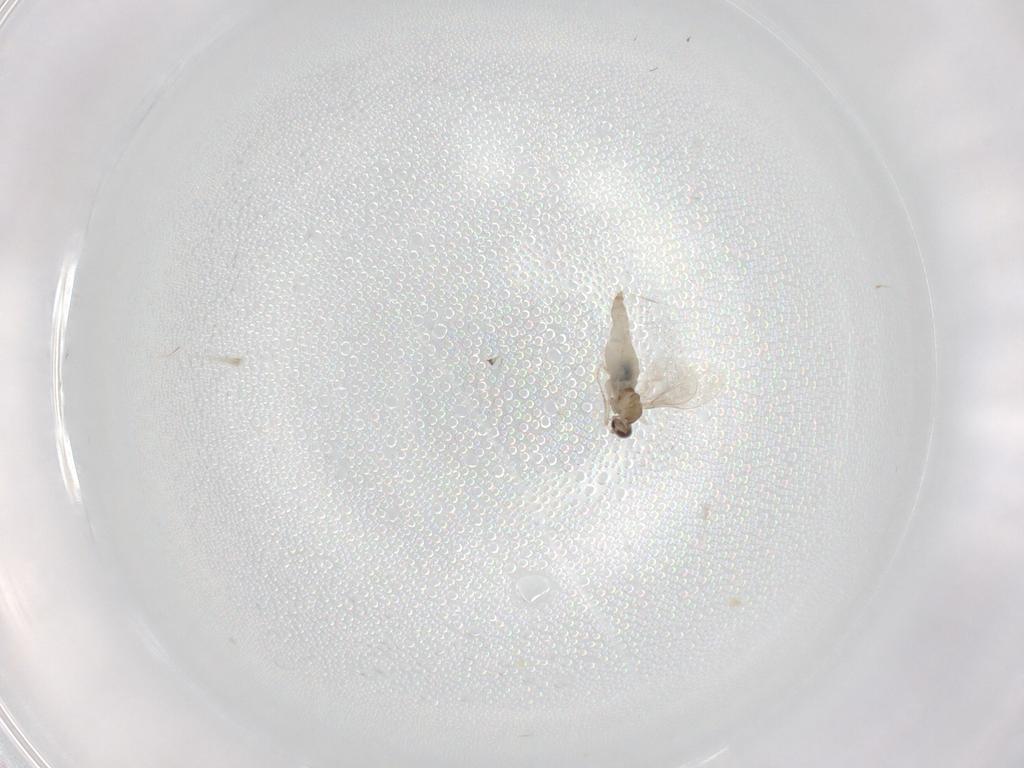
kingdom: Animalia
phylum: Arthropoda
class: Insecta
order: Diptera
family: Cecidomyiidae
